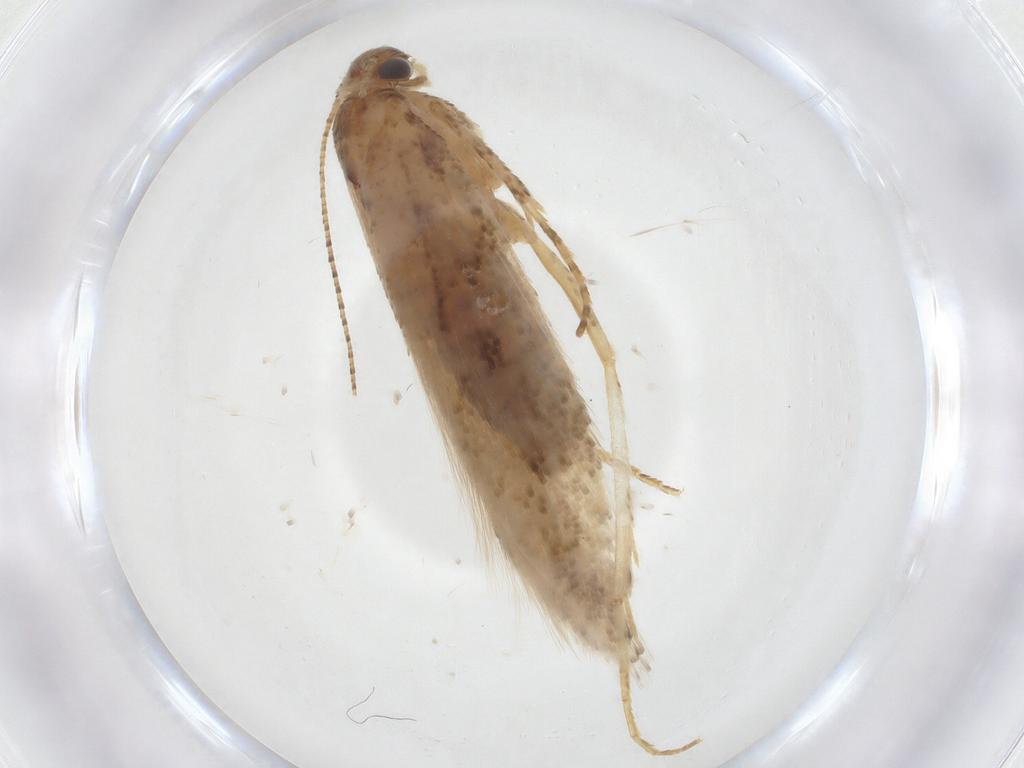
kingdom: Animalia
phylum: Arthropoda
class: Insecta
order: Lepidoptera
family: Gelechiidae
